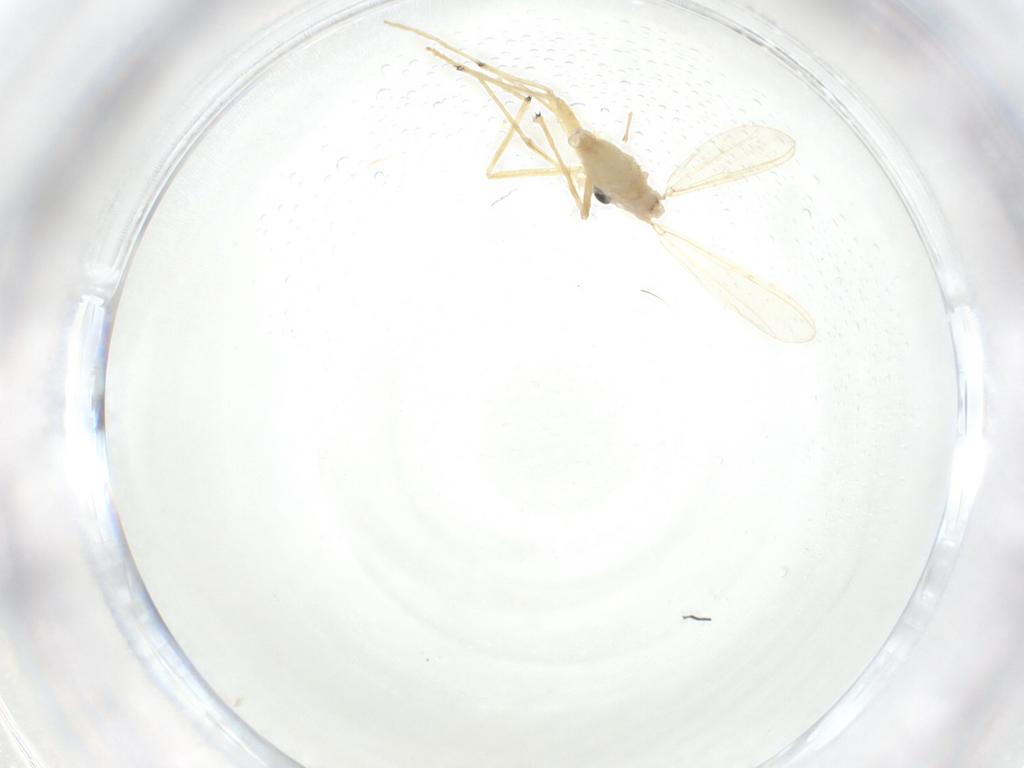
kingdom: Animalia
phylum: Arthropoda
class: Insecta
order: Diptera
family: Chironomidae
